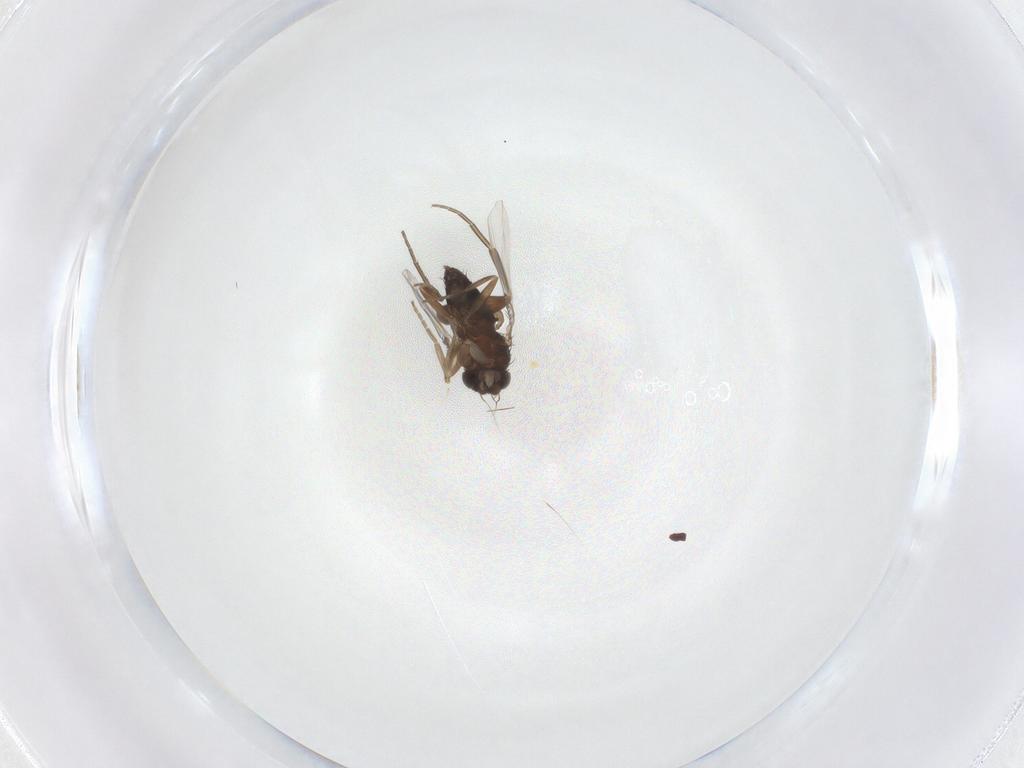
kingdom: Animalia
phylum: Arthropoda
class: Insecta
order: Diptera
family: Phoridae
